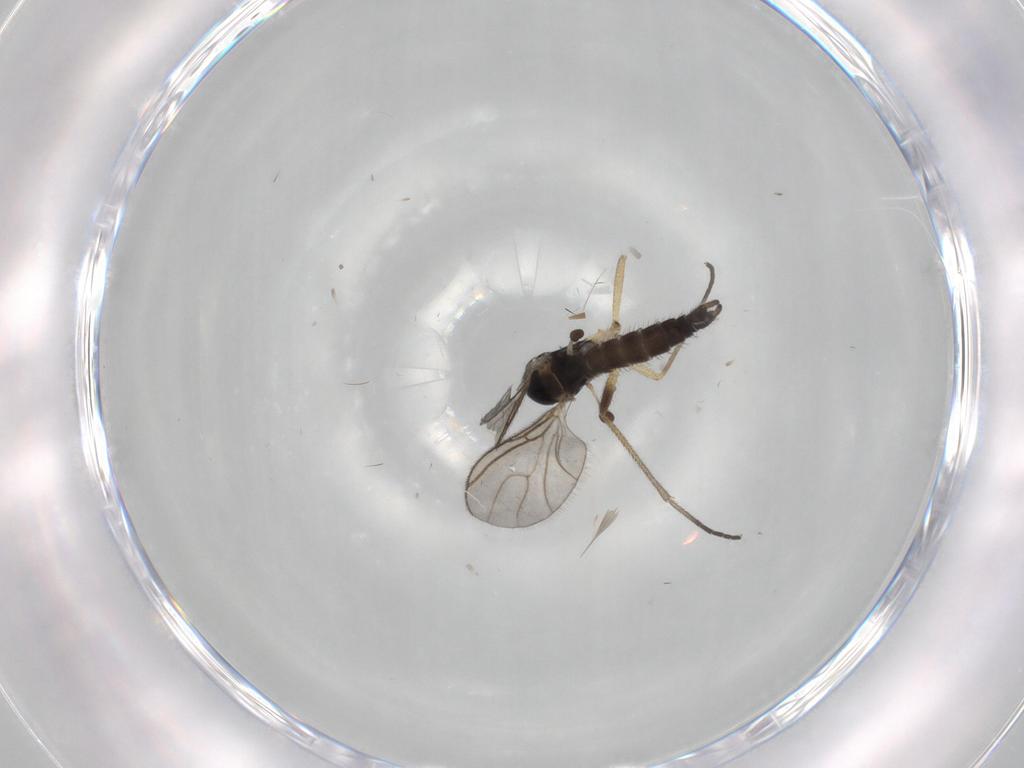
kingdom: Animalia
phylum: Arthropoda
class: Insecta
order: Diptera
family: Sciaridae
